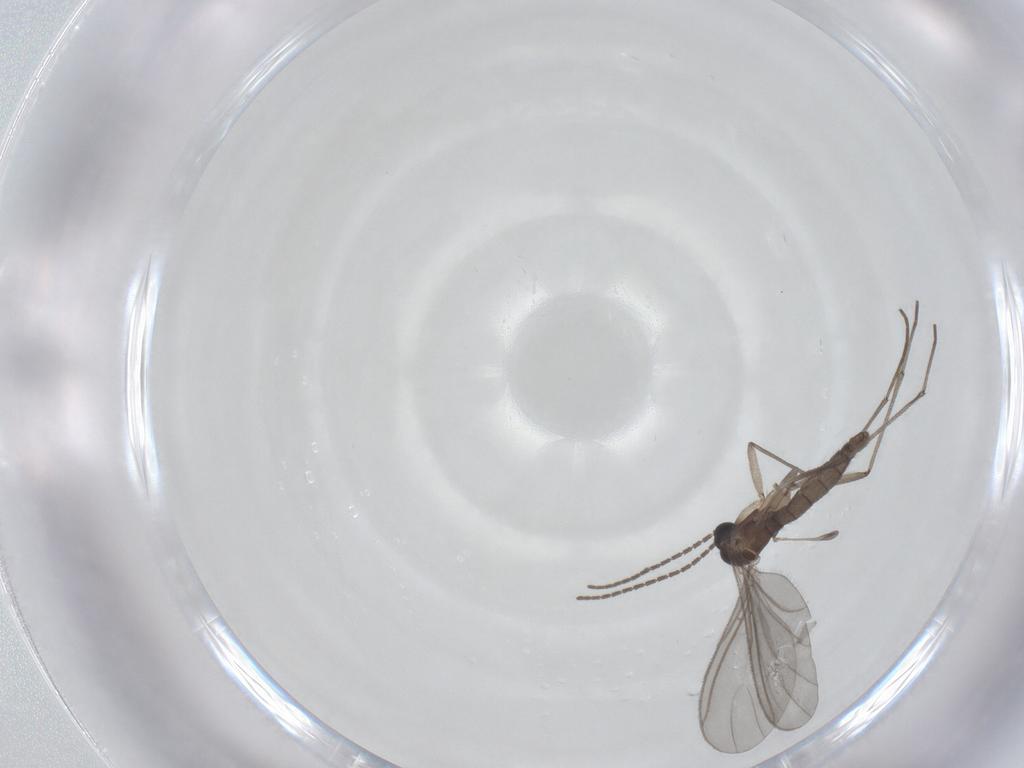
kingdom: Animalia
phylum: Arthropoda
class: Insecta
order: Diptera
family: Sciaridae
